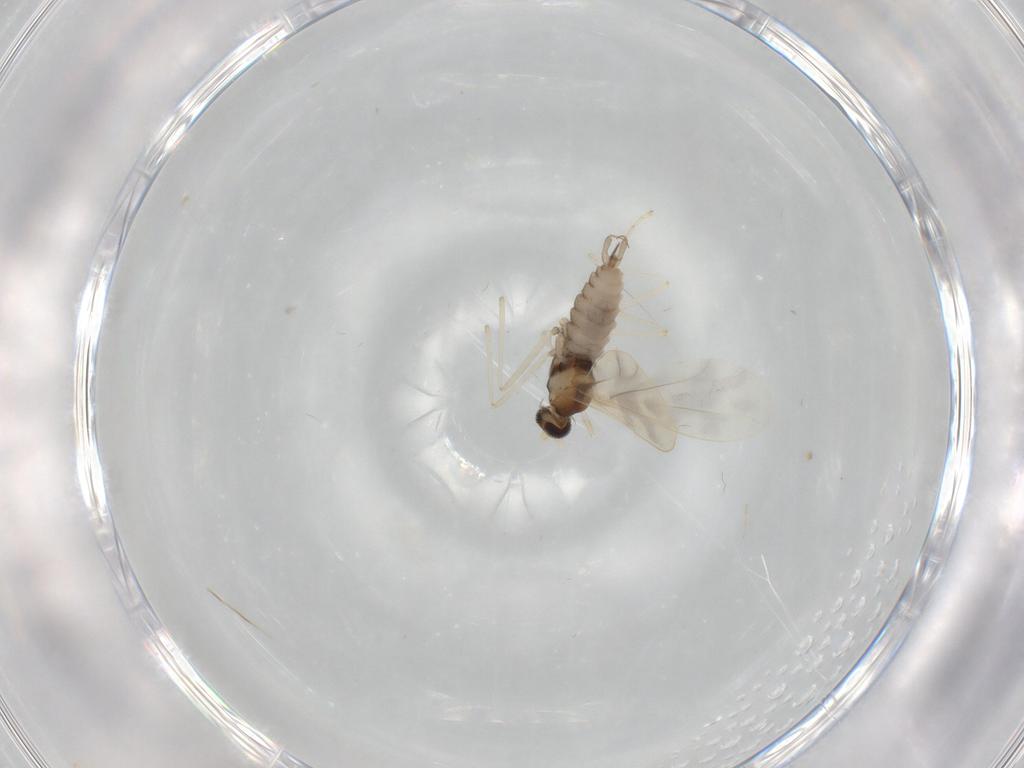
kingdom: Animalia
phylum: Arthropoda
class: Insecta
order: Diptera
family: Cecidomyiidae
